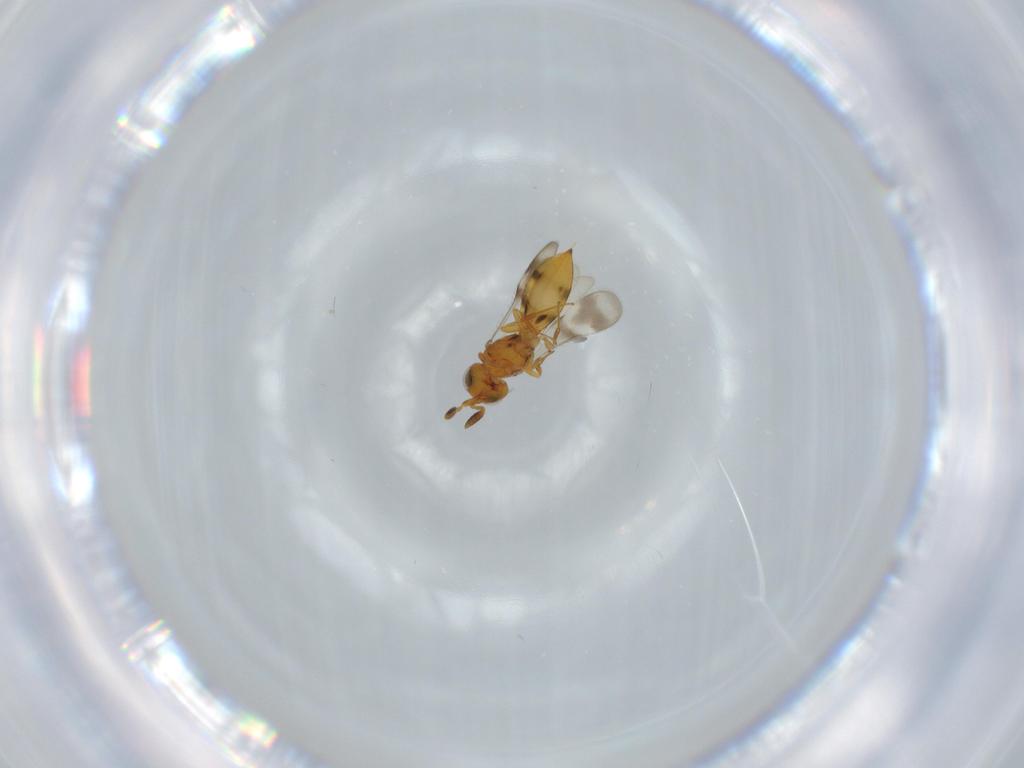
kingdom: Animalia
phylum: Arthropoda
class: Insecta
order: Hymenoptera
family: Scelionidae
